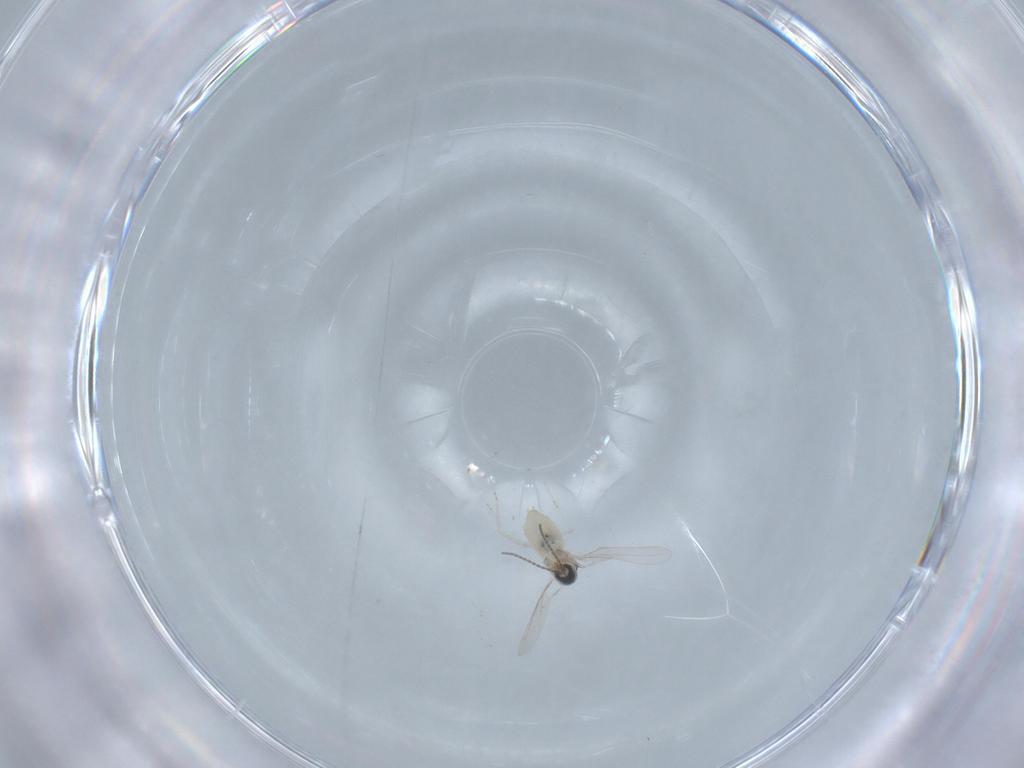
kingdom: Animalia
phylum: Arthropoda
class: Insecta
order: Diptera
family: Cecidomyiidae
